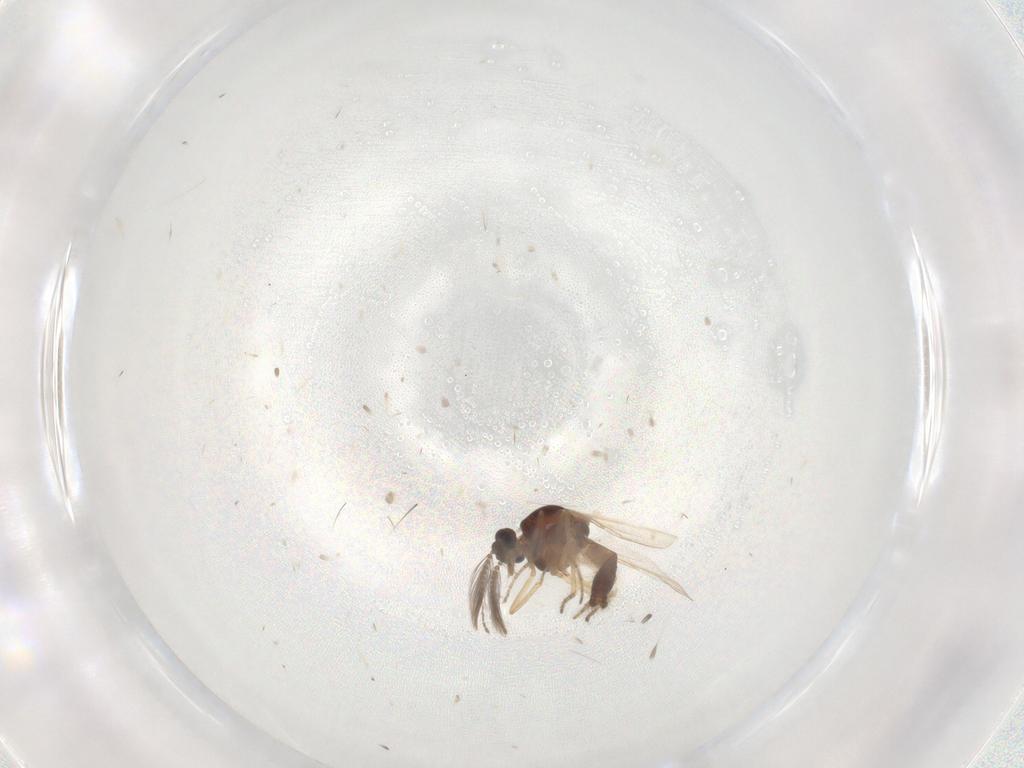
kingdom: Animalia
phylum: Arthropoda
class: Insecta
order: Diptera
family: Ceratopogonidae
